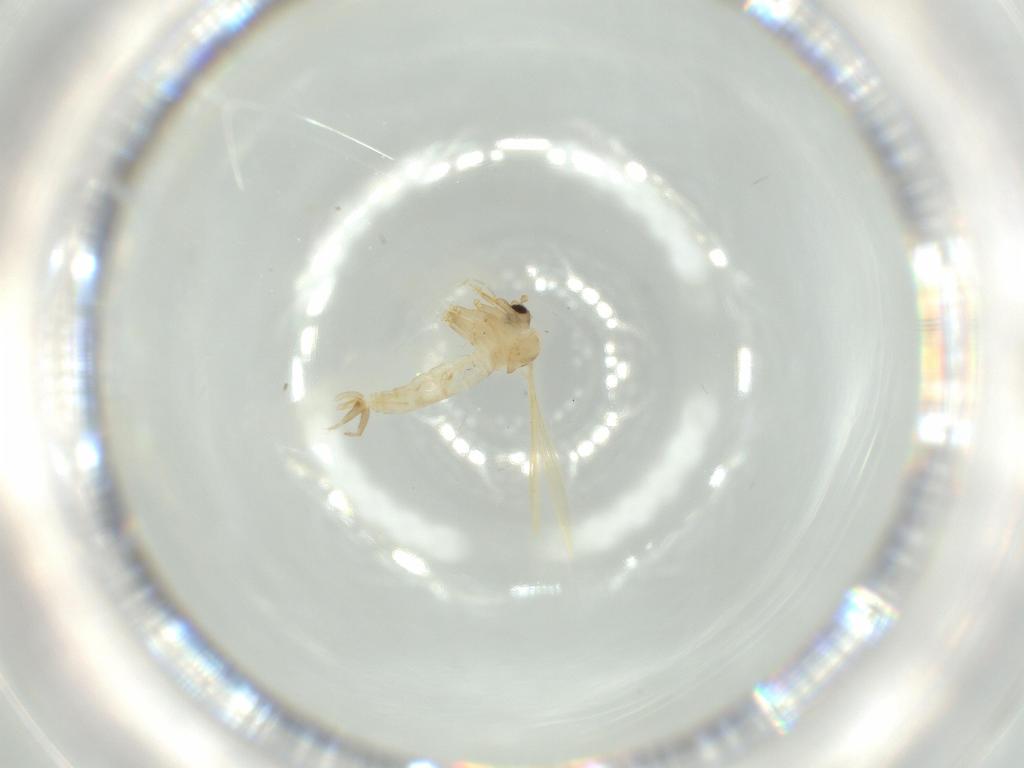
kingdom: Animalia
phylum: Arthropoda
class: Insecta
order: Diptera
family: Psychodidae
